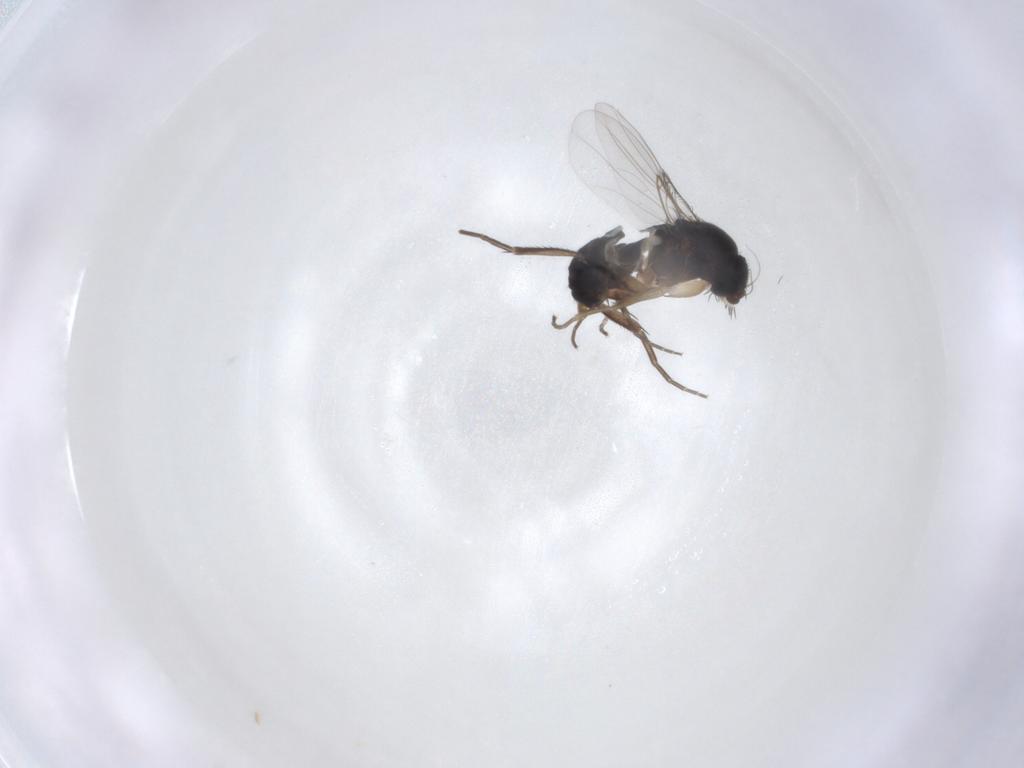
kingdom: Animalia
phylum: Arthropoda
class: Insecta
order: Diptera
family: Phoridae
